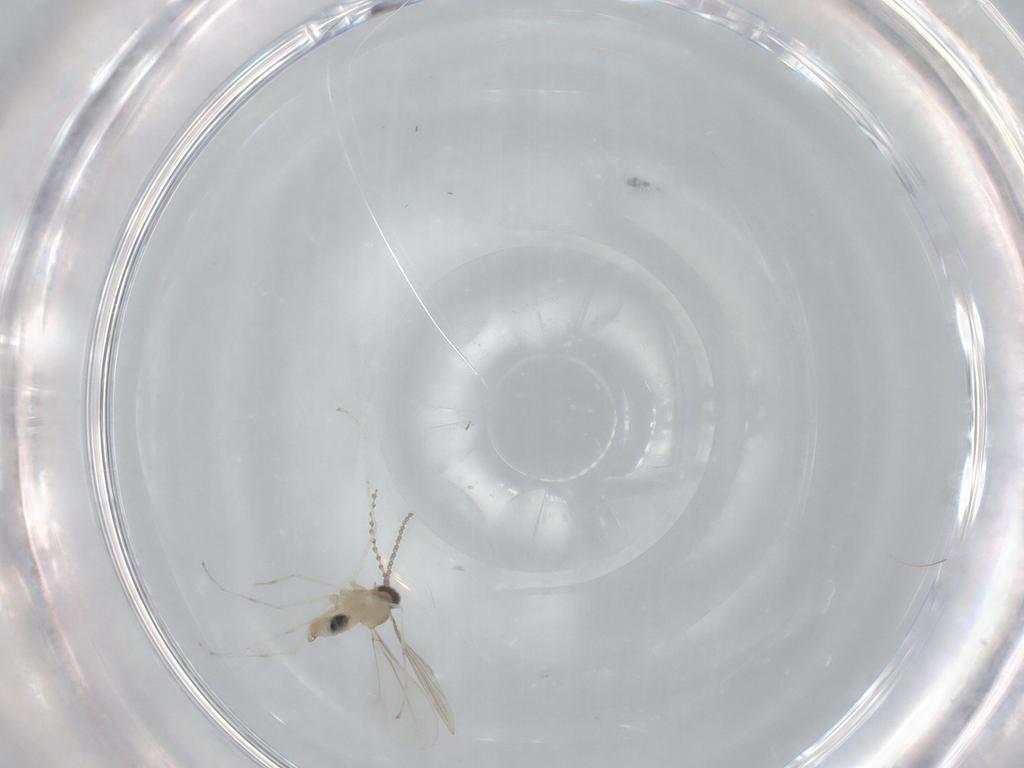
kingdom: Animalia
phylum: Arthropoda
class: Insecta
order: Diptera
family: Cecidomyiidae
